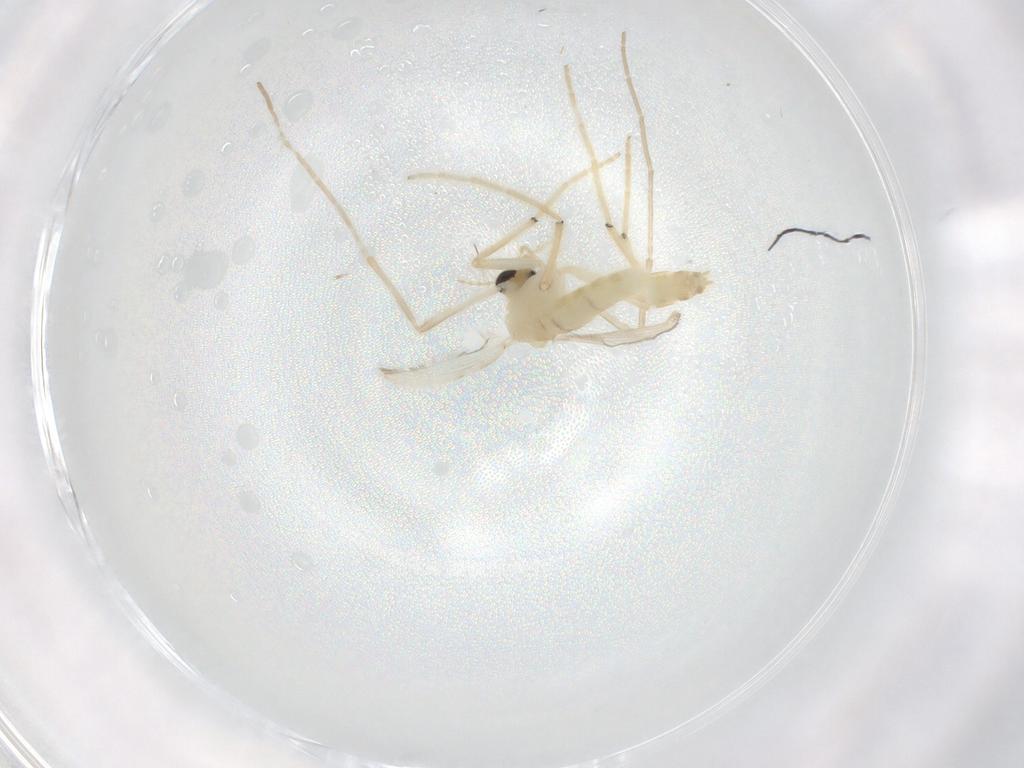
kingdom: Animalia
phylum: Arthropoda
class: Insecta
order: Diptera
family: Chironomidae
